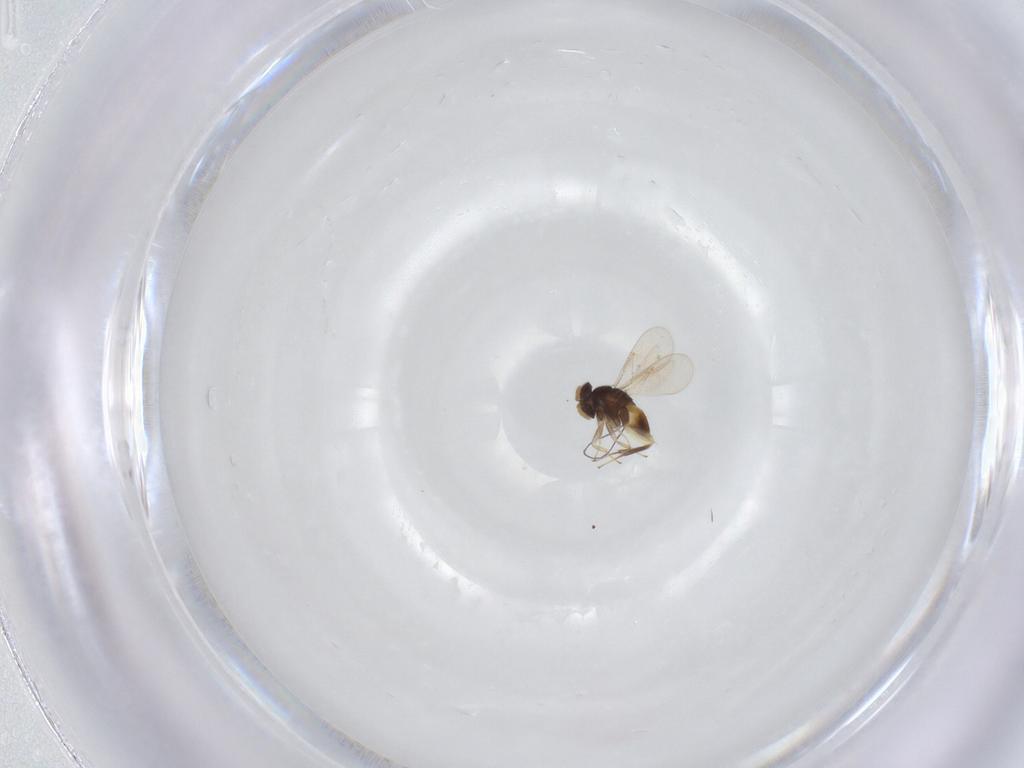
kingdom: Animalia
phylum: Arthropoda
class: Insecta
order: Hymenoptera
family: Aphelinidae
